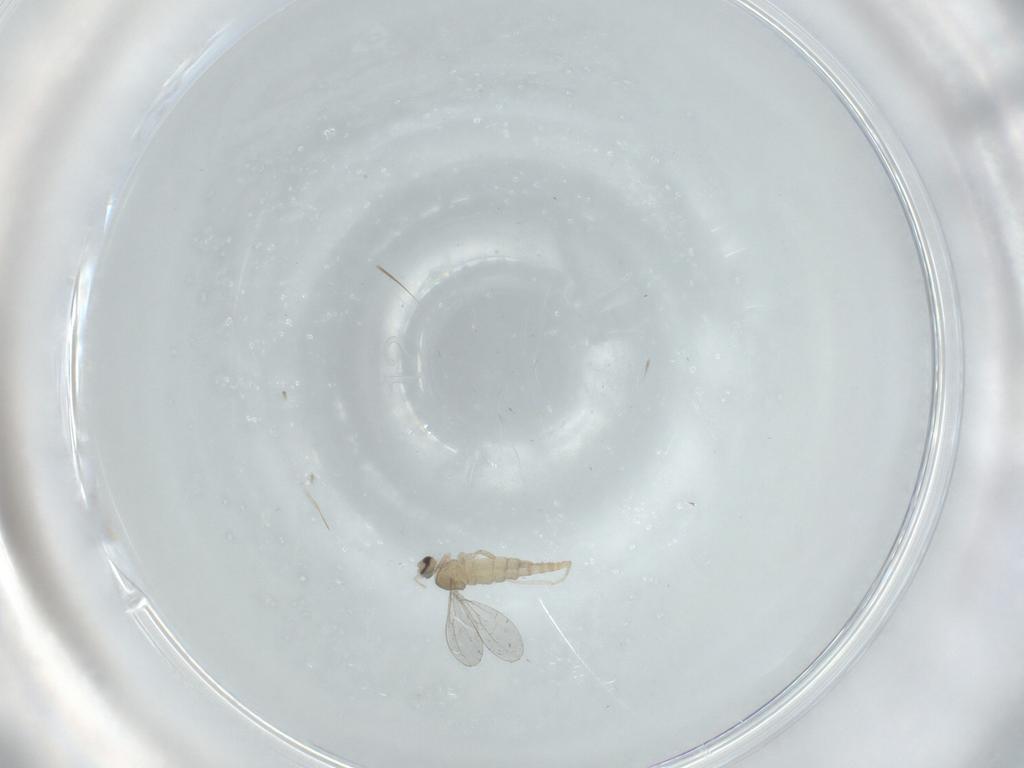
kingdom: Animalia
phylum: Arthropoda
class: Insecta
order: Diptera
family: Cecidomyiidae
